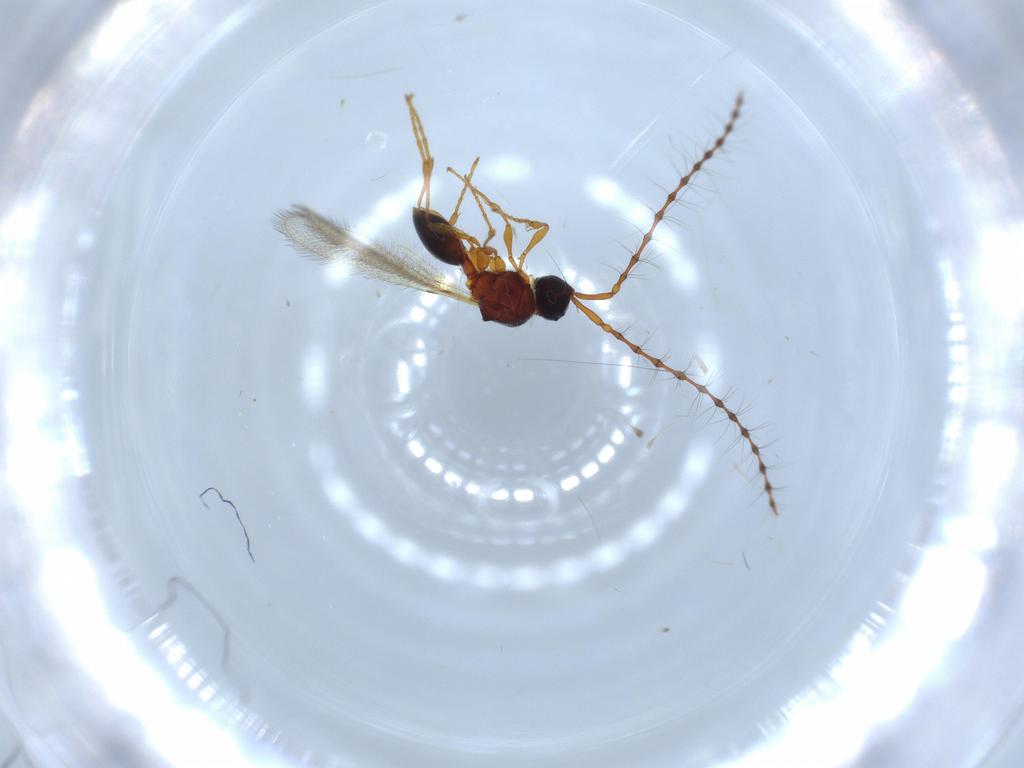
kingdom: Animalia
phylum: Arthropoda
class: Insecta
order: Hymenoptera
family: Diapriidae
